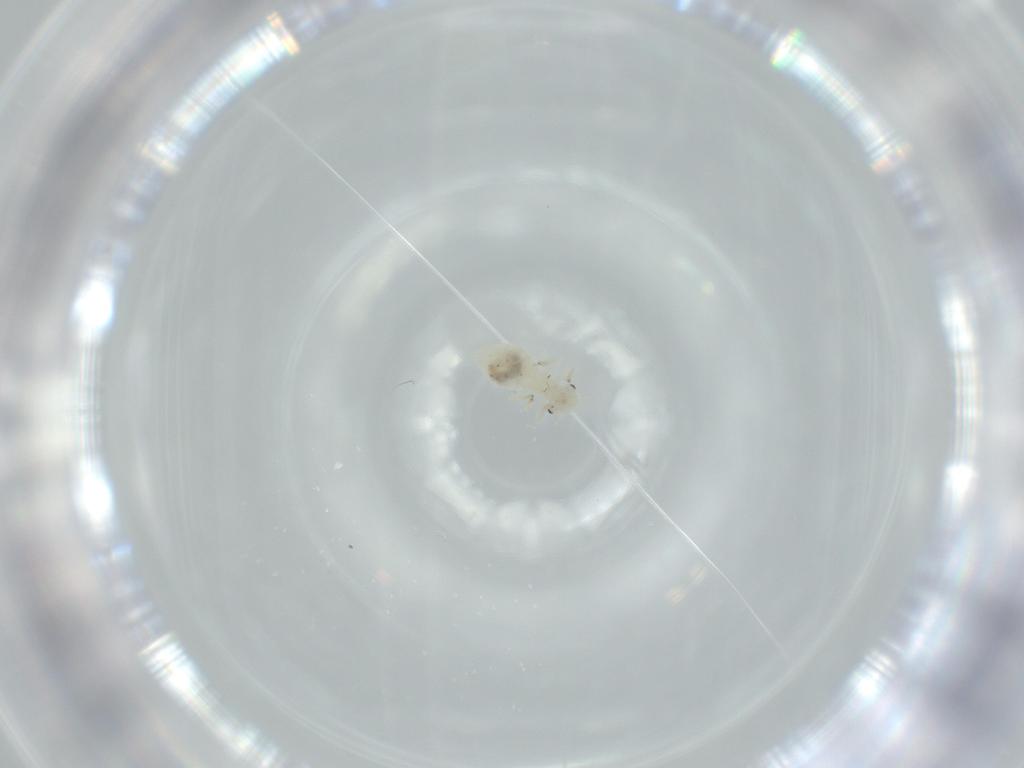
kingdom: Animalia
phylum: Arthropoda
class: Insecta
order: Psocodea
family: Caeciliusidae
